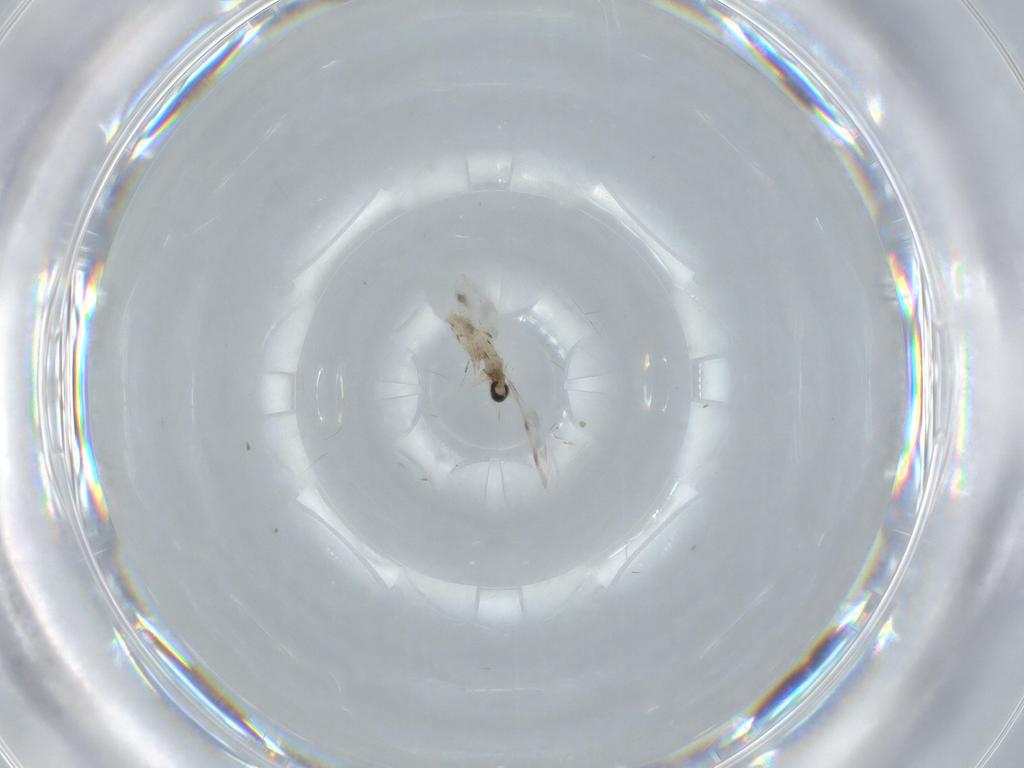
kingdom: Animalia
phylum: Arthropoda
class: Insecta
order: Diptera
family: Cecidomyiidae
